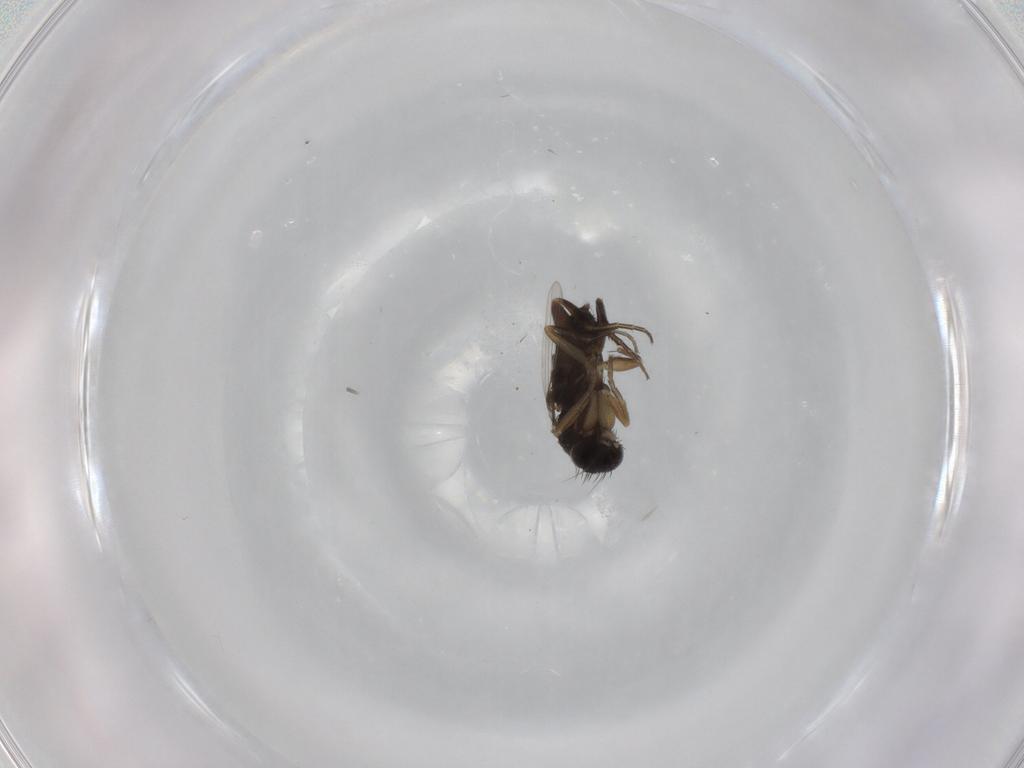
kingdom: Animalia
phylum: Arthropoda
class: Insecta
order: Diptera
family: Phoridae
